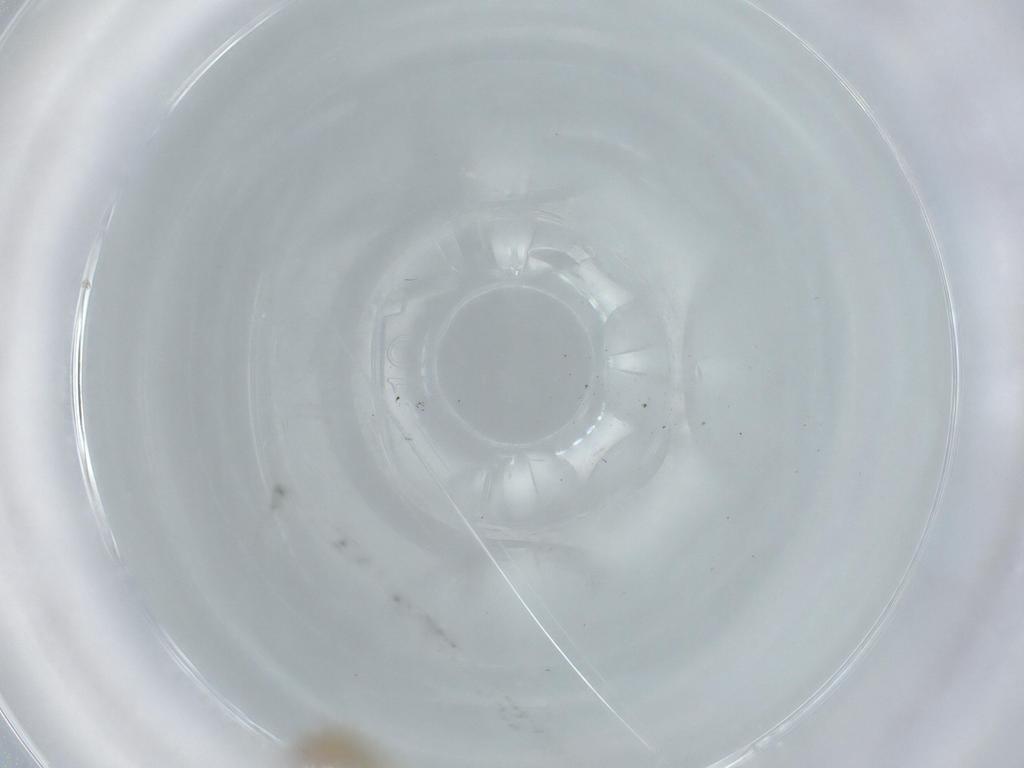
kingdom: Animalia
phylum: Arthropoda
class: Insecta
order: Diptera
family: Cecidomyiidae
